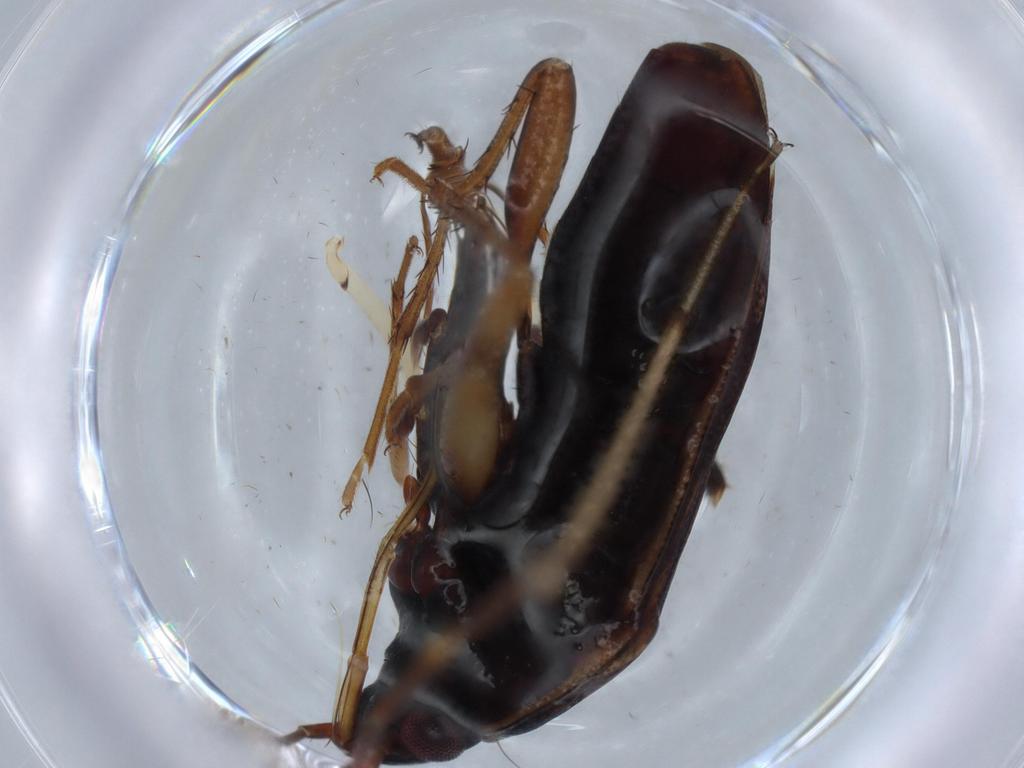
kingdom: Animalia
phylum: Arthropoda
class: Insecta
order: Hemiptera
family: Rhyparochromidae
